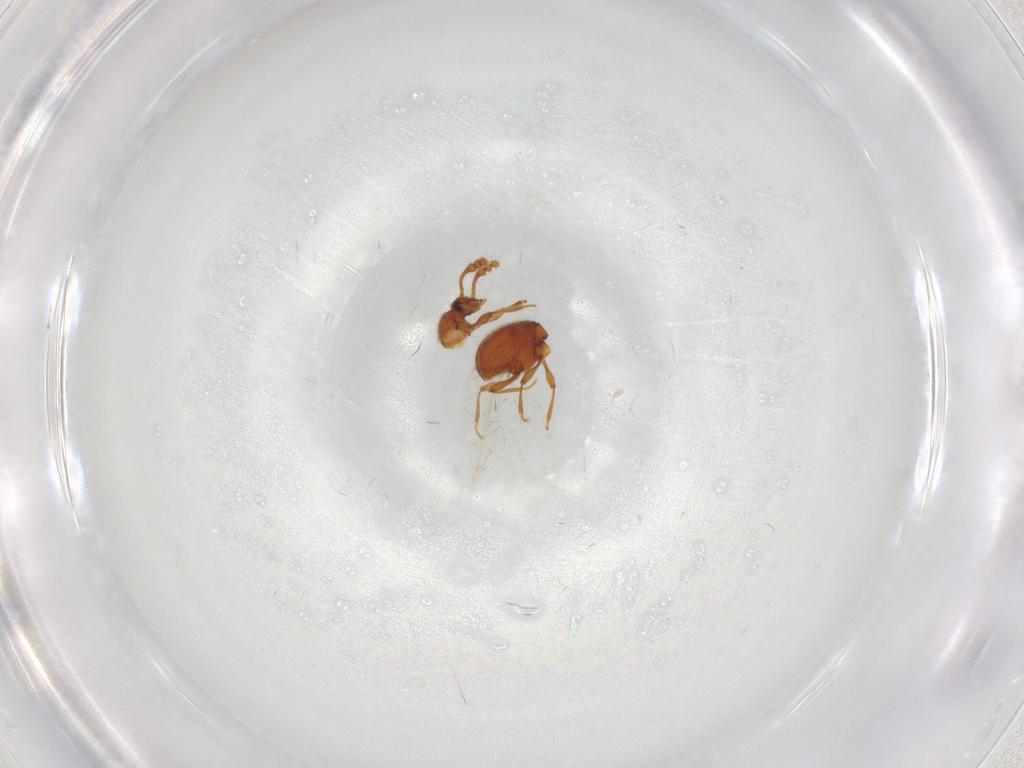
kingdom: Animalia
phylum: Arthropoda
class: Insecta
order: Coleoptera
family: Staphylinidae
